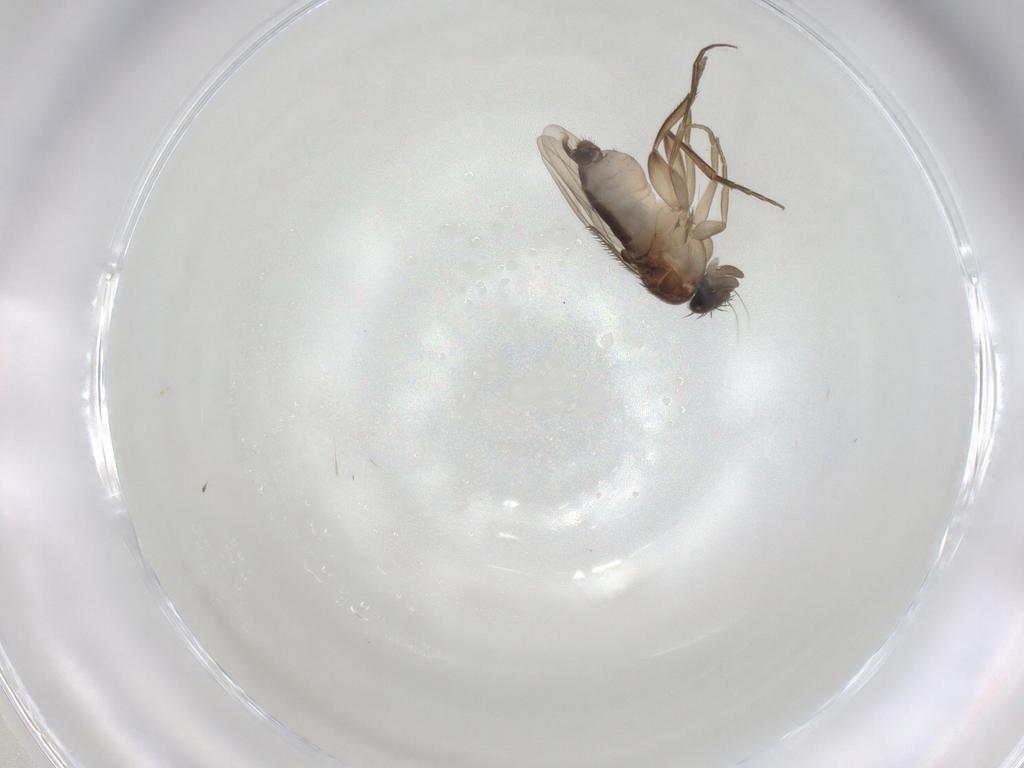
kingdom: Animalia
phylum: Arthropoda
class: Insecta
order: Diptera
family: Phoridae
